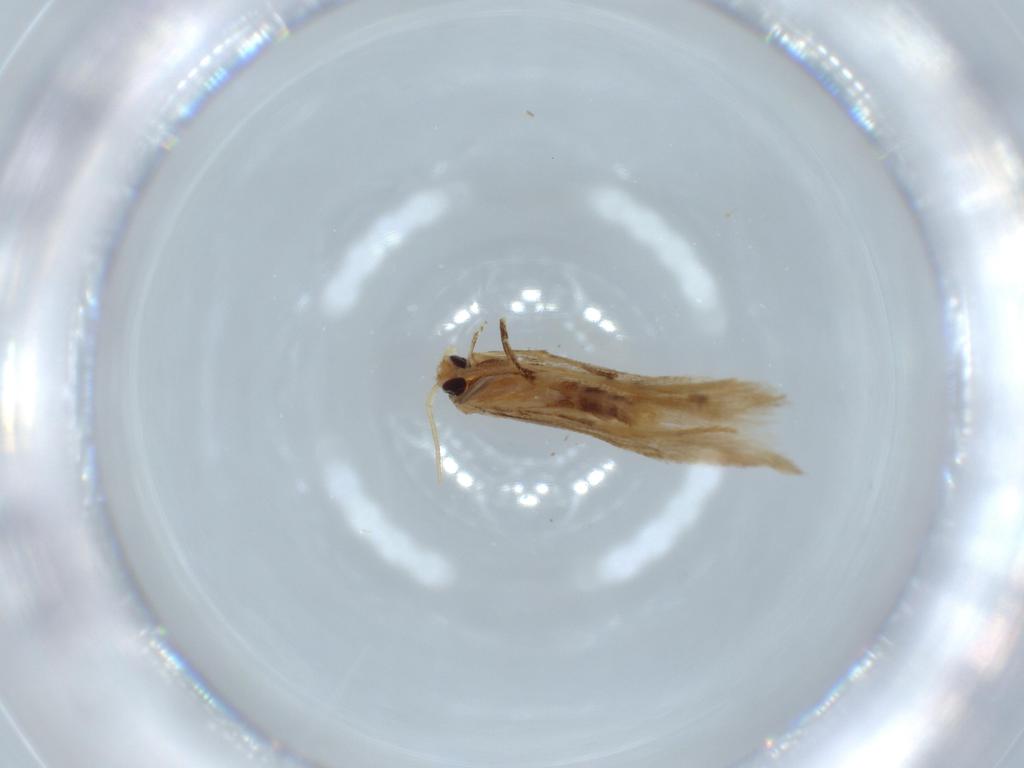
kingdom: Animalia
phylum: Arthropoda
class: Insecta
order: Lepidoptera
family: Gracillariidae
